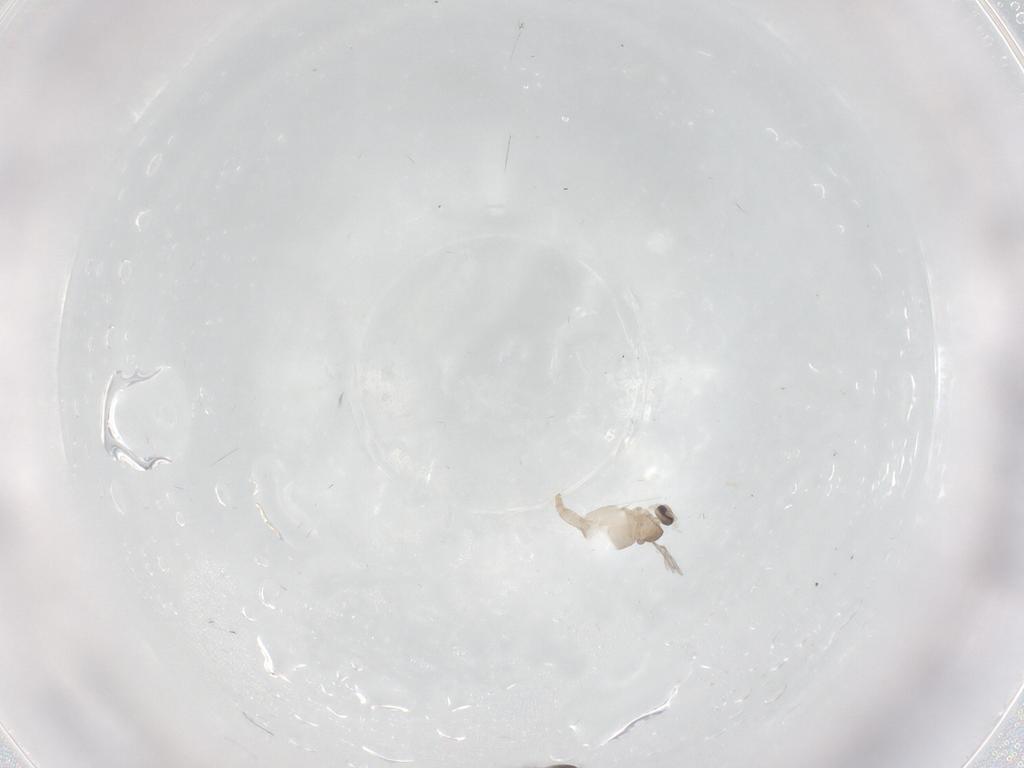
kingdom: Animalia
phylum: Arthropoda
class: Insecta
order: Diptera
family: Cecidomyiidae
